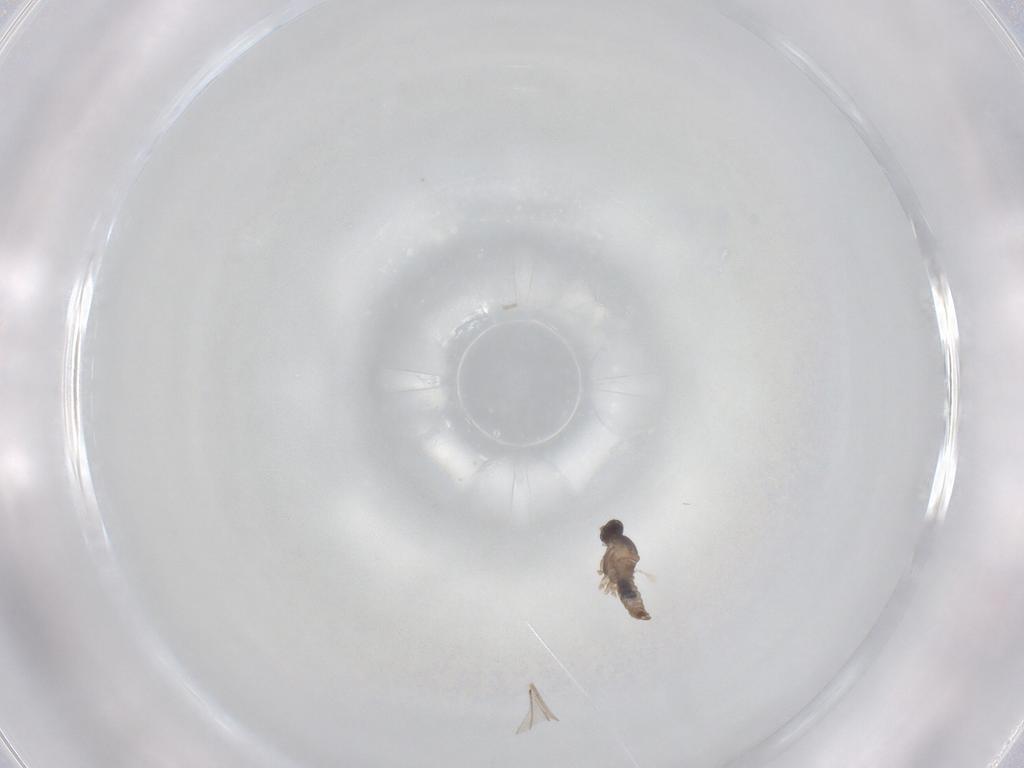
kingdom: Animalia
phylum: Arthropoda
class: Insecta
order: Diptera
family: Cecidomyiidae
